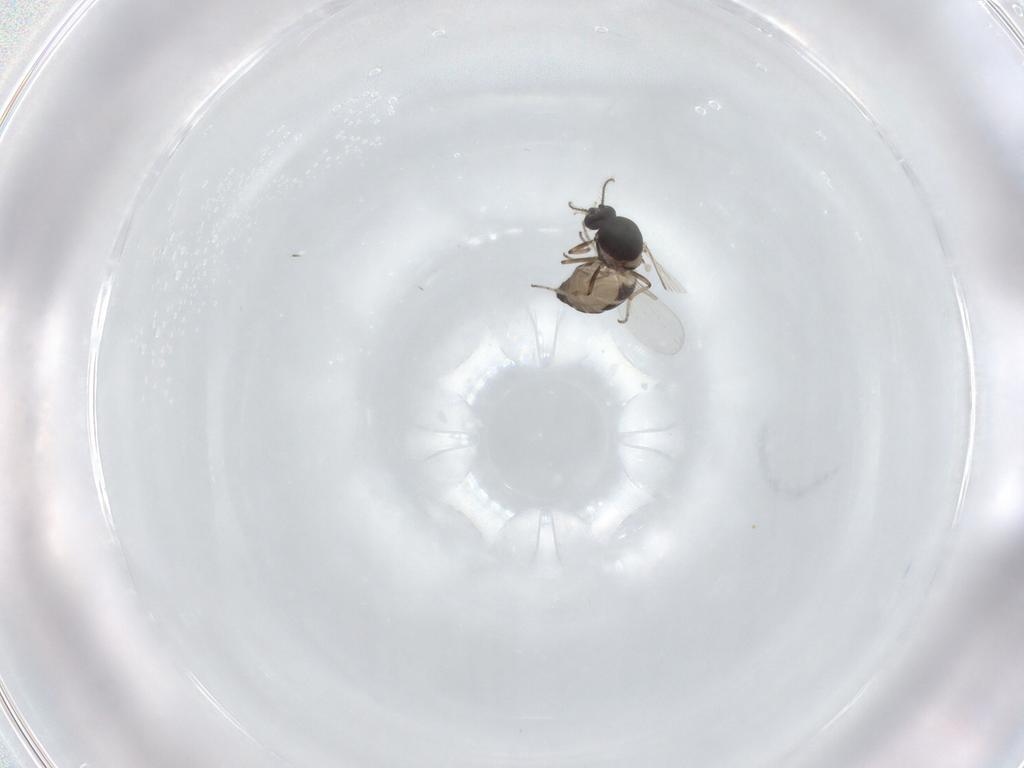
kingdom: Animalia
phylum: Arthropoda
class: Insecta
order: Diptera
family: Ceratopogonidae
